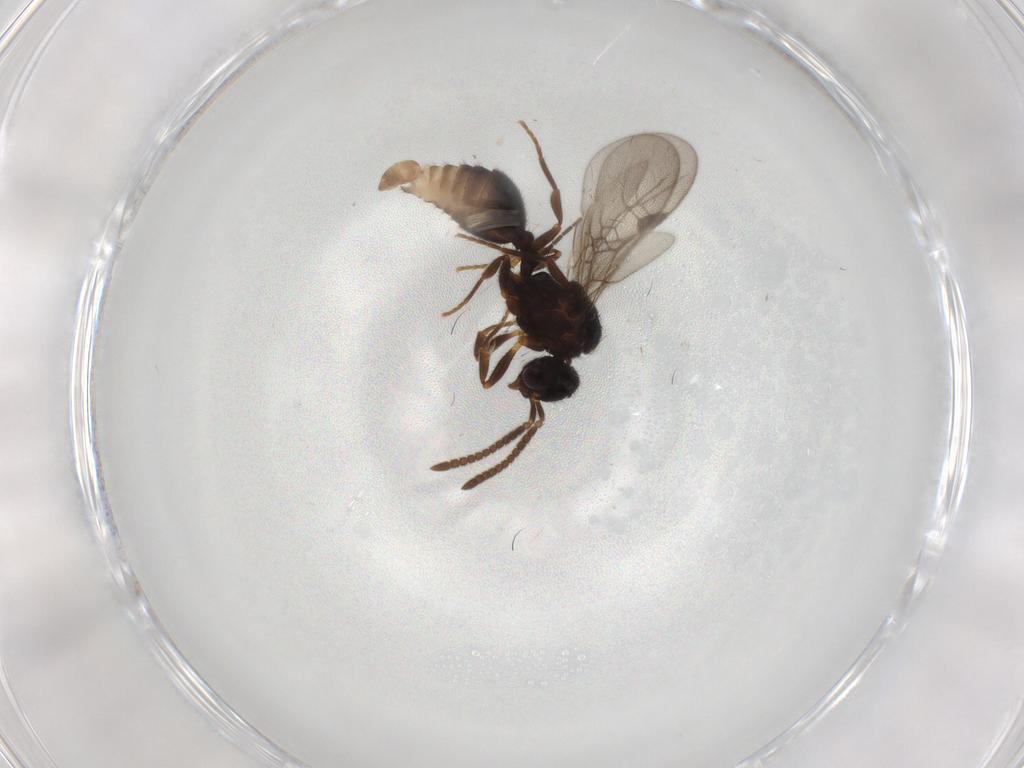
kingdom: Animalia
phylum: Arthropoda
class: Insecta
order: Hymenoptera
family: Formicidae
